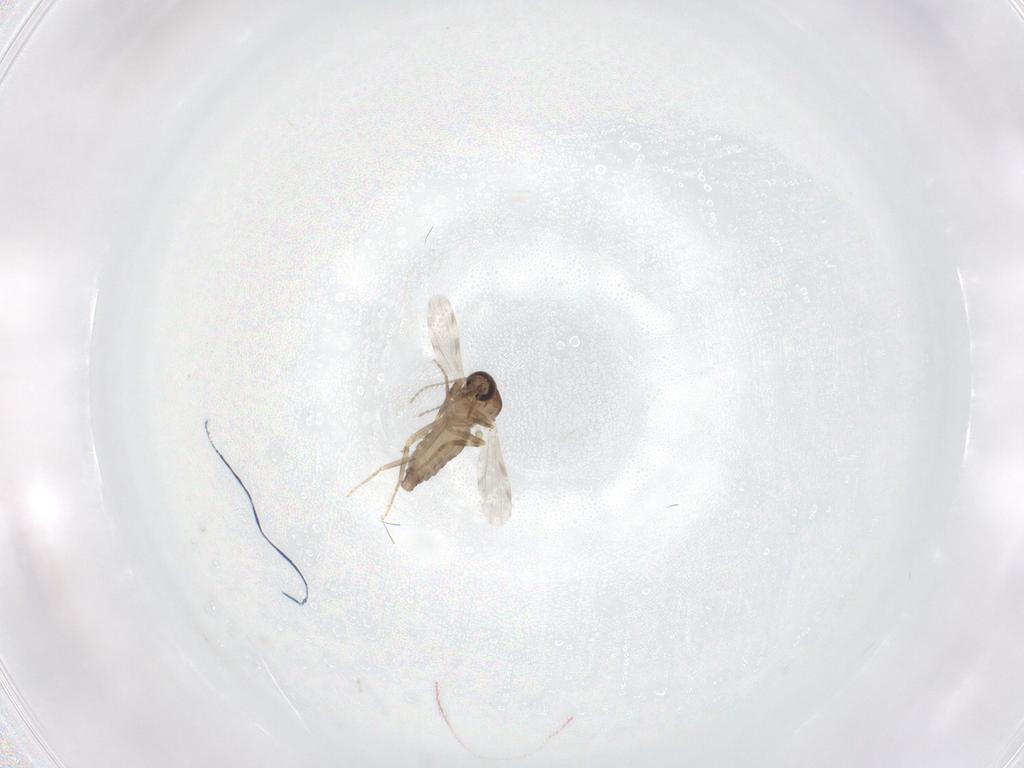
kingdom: Animalia
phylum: Arthropoda
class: Insecta
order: Diptera
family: Ceratopogonidae
